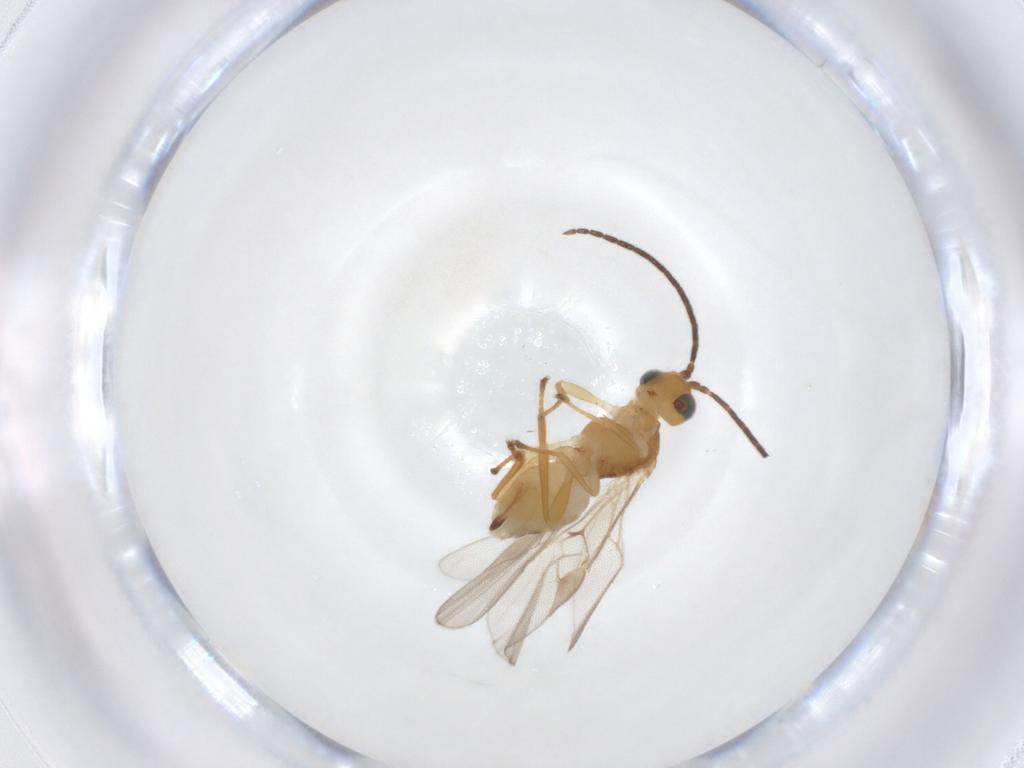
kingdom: Animalia
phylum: Arthropoda
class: Insecta
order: Hymenoptera
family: Braconidae
